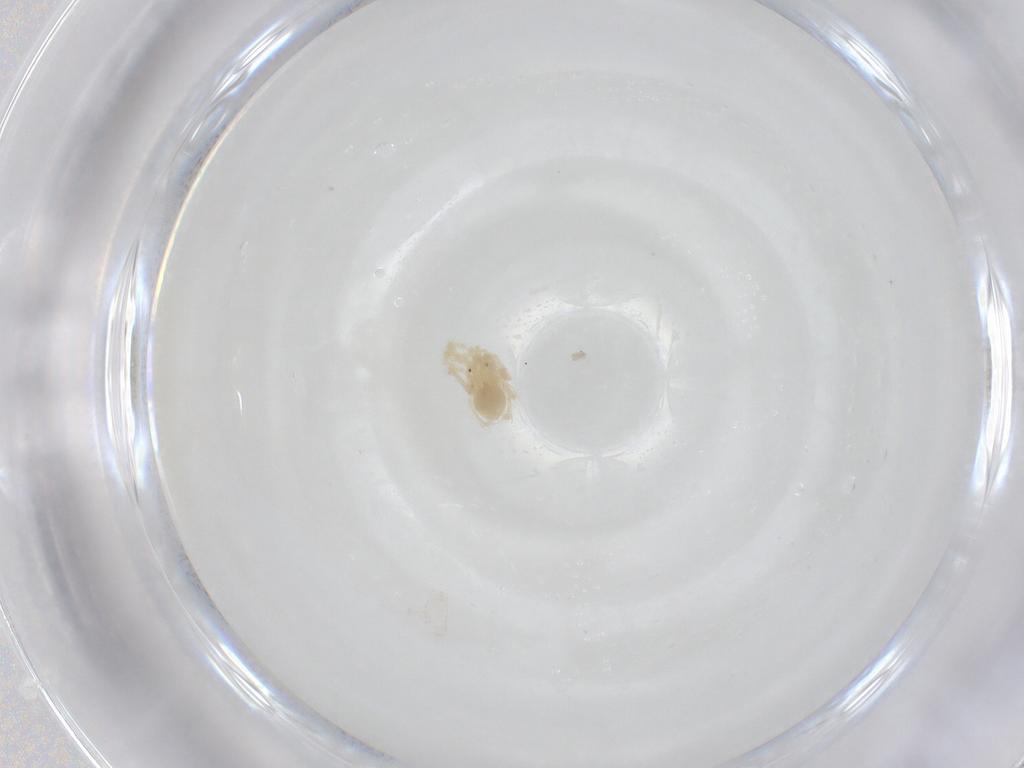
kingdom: Animalia
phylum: Arthropoda
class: Arachnida
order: Trombidiformes
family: Anystidae
